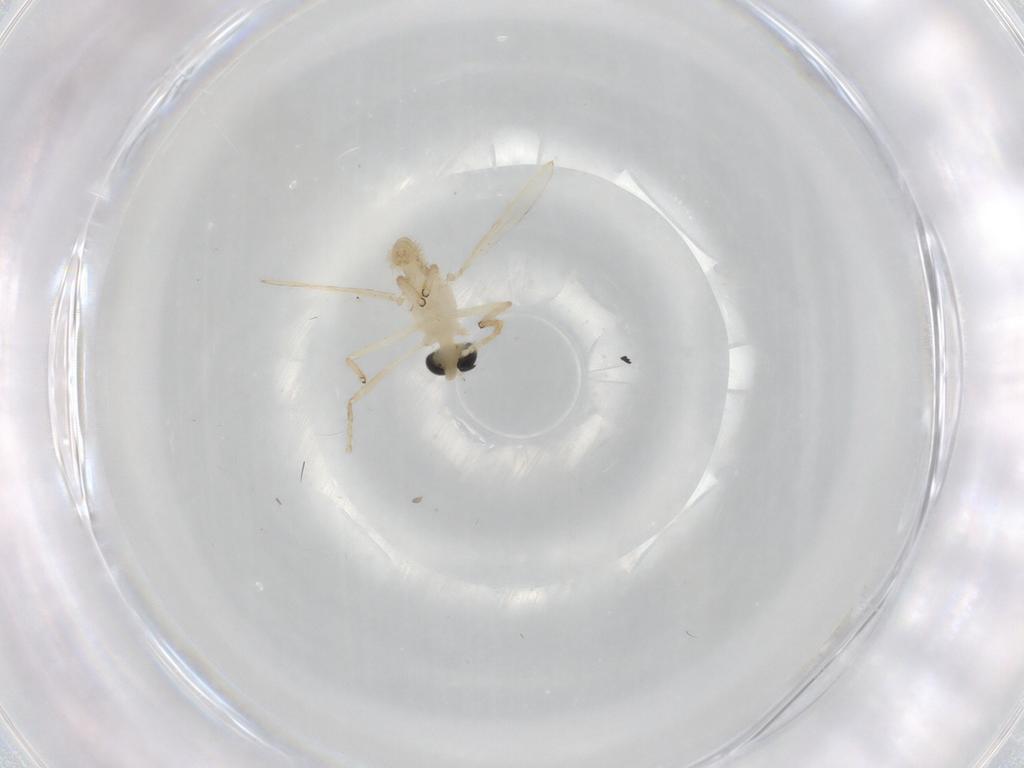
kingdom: Animalia
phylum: Arthropoda
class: Insecta
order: Diptera
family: Chironomidae
